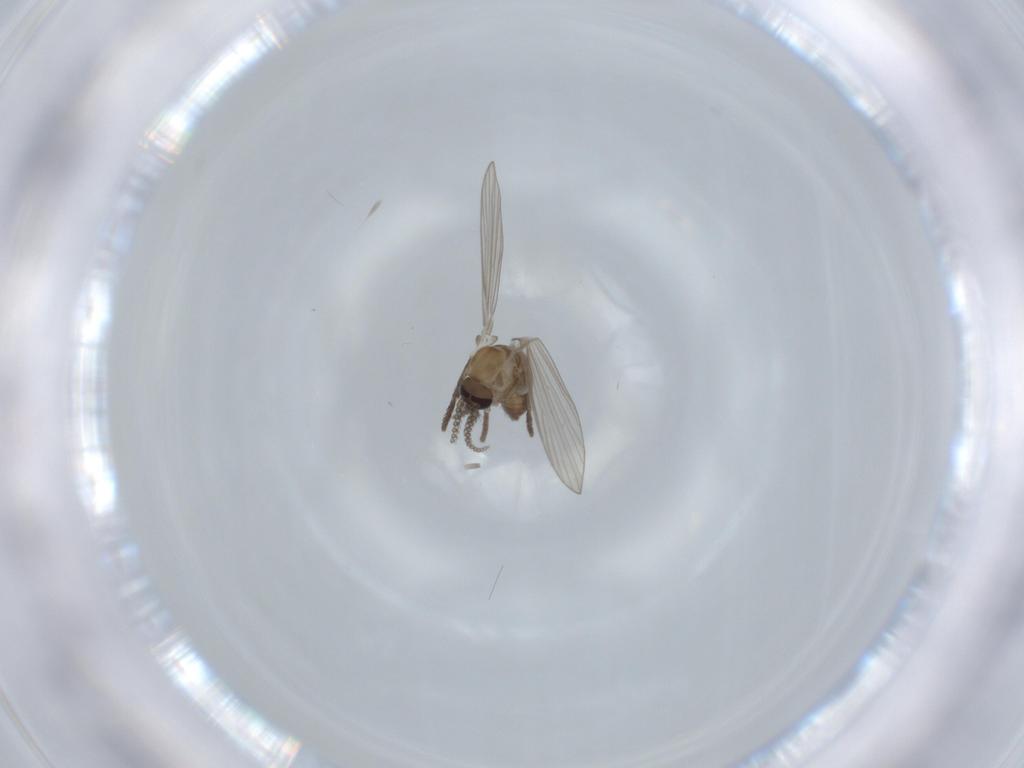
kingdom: Animalia
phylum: Arthropoda
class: Insecta
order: Diptera
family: Psychodidae
